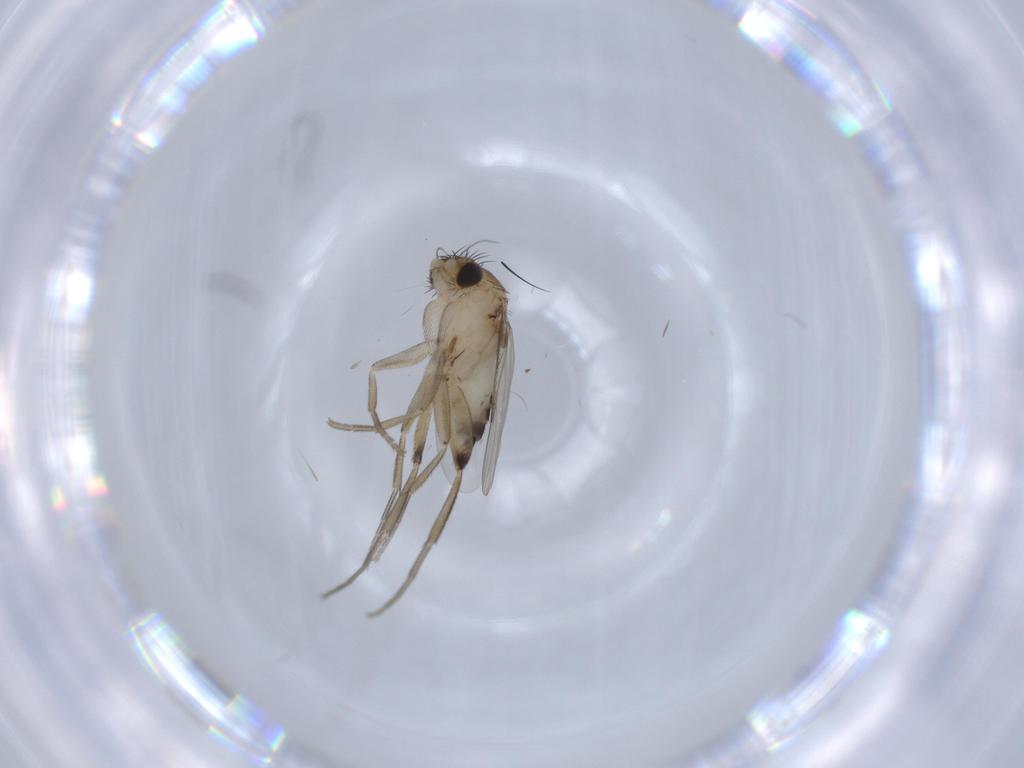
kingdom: Animalia
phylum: Arthropoda
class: Insecta
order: Diptera
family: Phoridae
